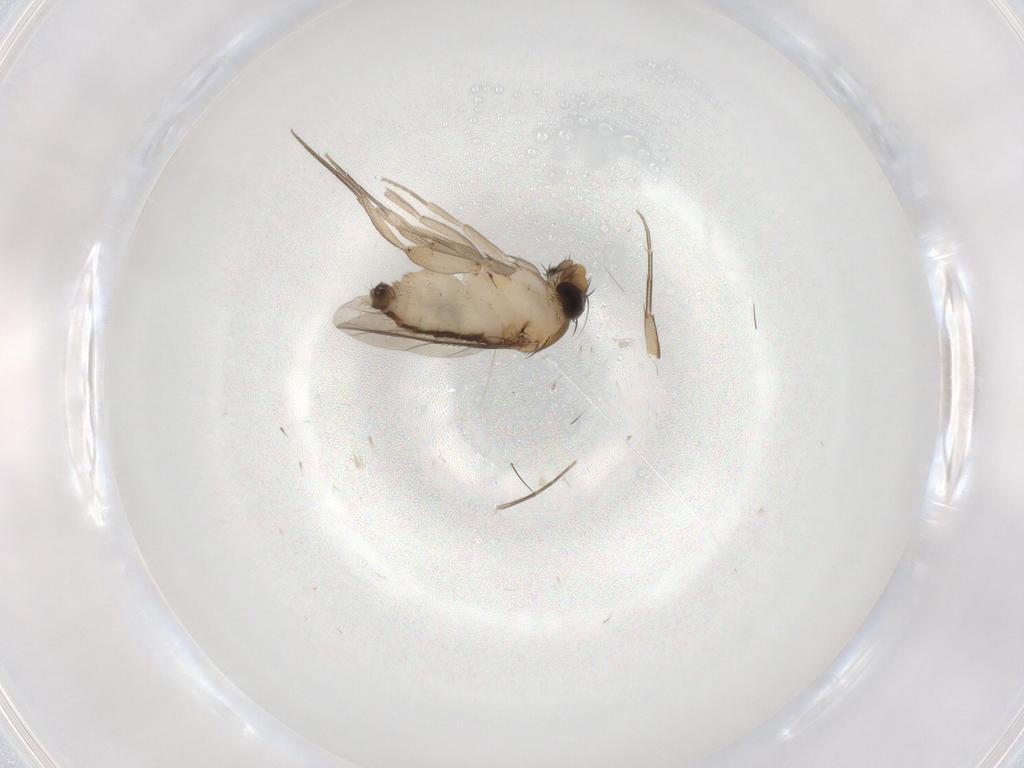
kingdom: Animalia
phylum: Arthropoda
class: Insecta
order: Diptera
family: Phoridae
